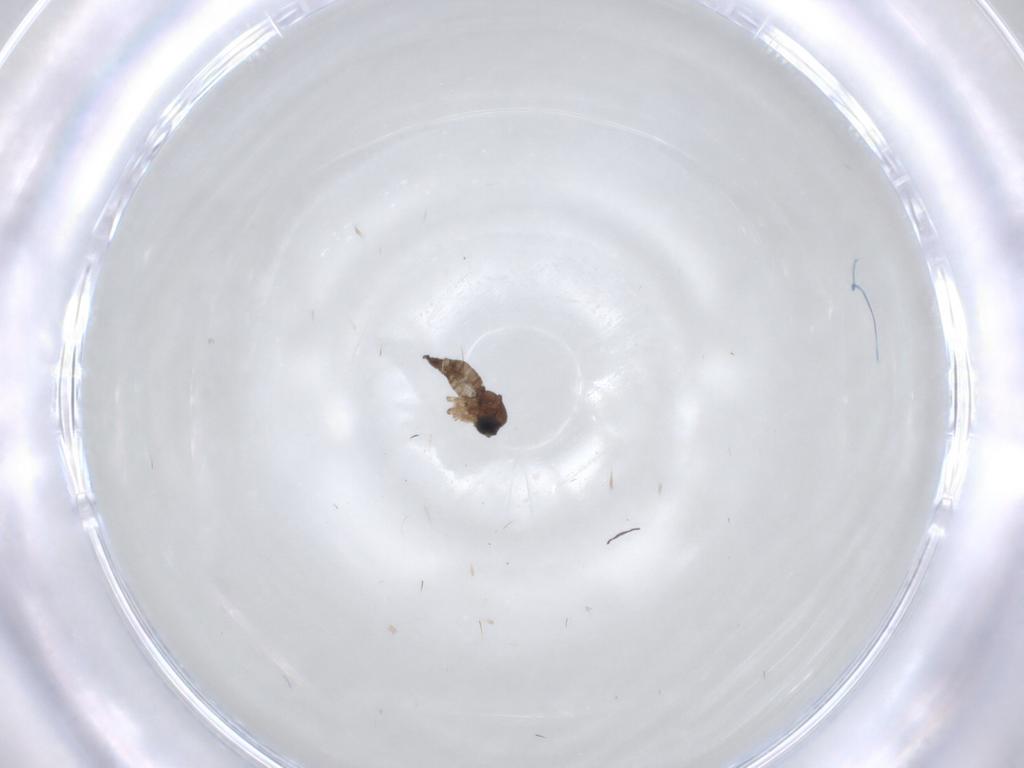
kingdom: Animalia
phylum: Arthropoda
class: Insecta
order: Diptera
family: Sciaridae
